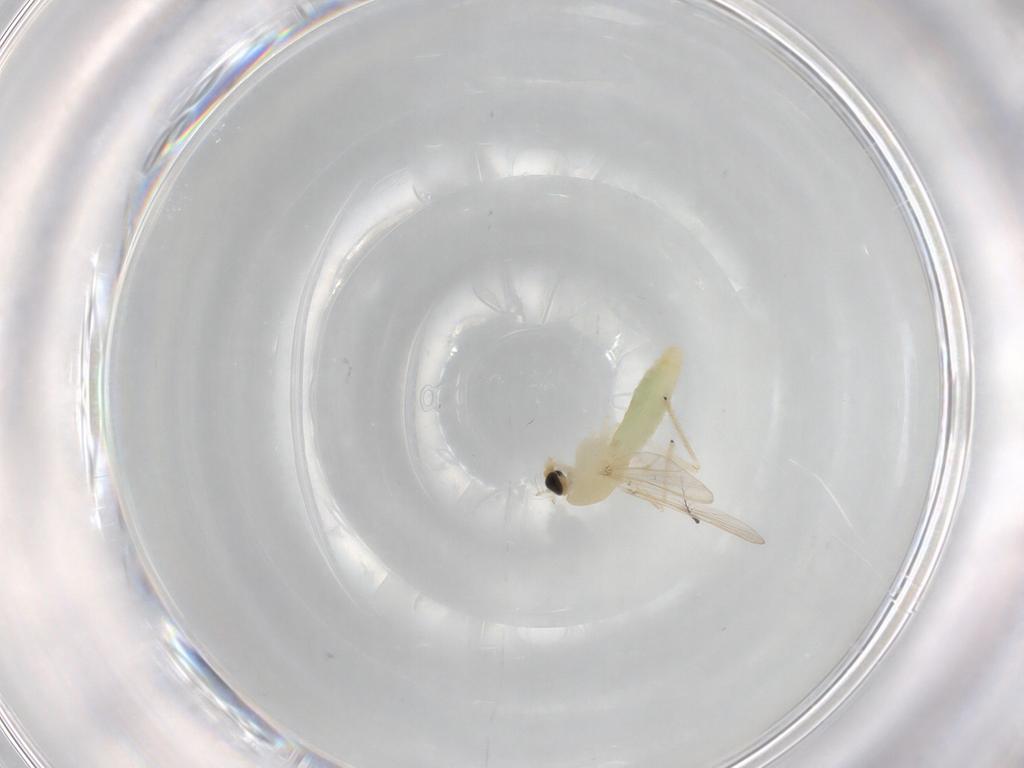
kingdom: Animalia
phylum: Arthropoda
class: Insecta
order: Diptera
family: Chironomidae
